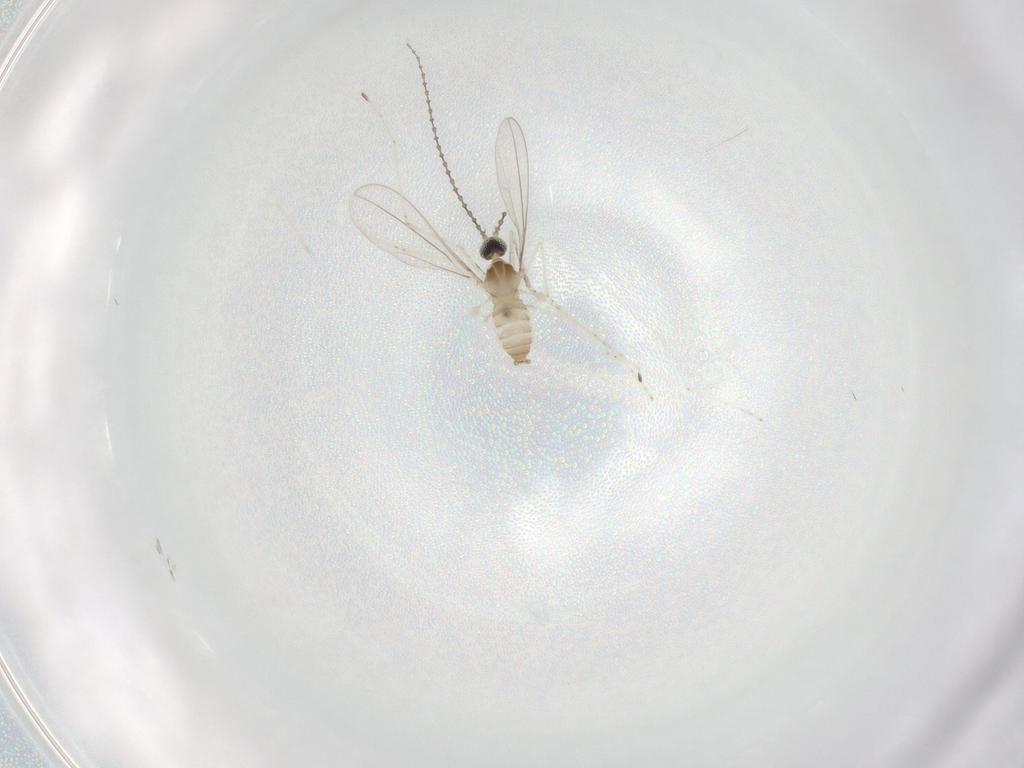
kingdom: Animalia
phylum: Arthropoda
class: Insecta
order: Diptera
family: Cecidomyiidae
